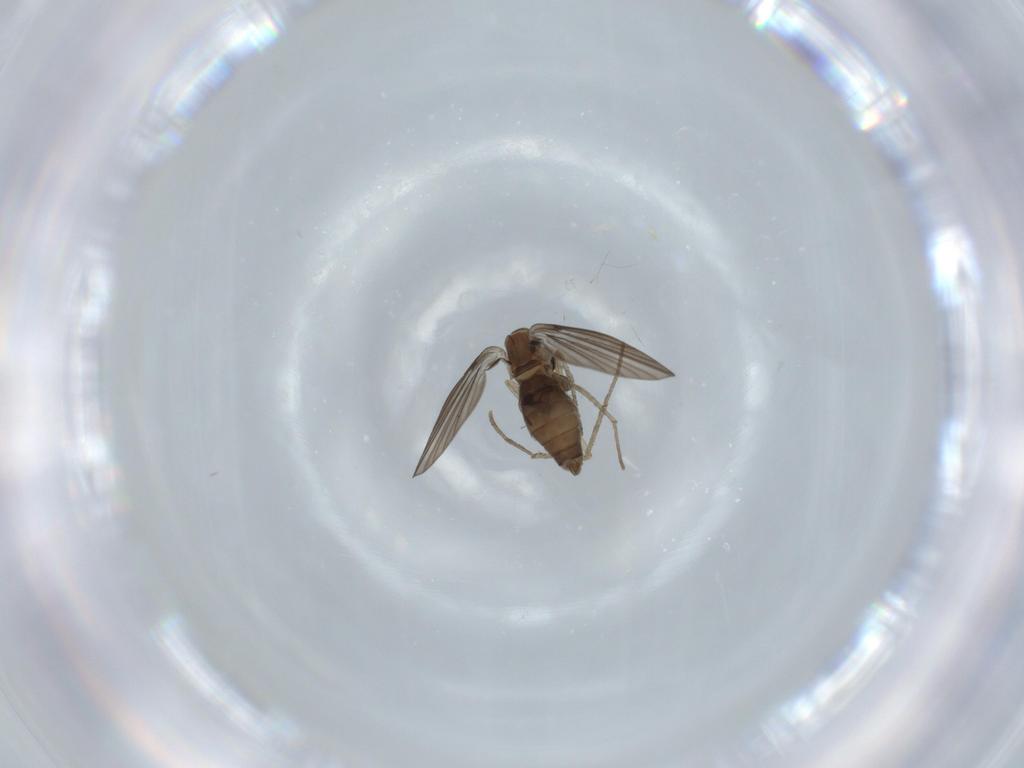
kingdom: Animalia
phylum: Arthropoda
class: Insecta
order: Diptera
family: Psychodidae
